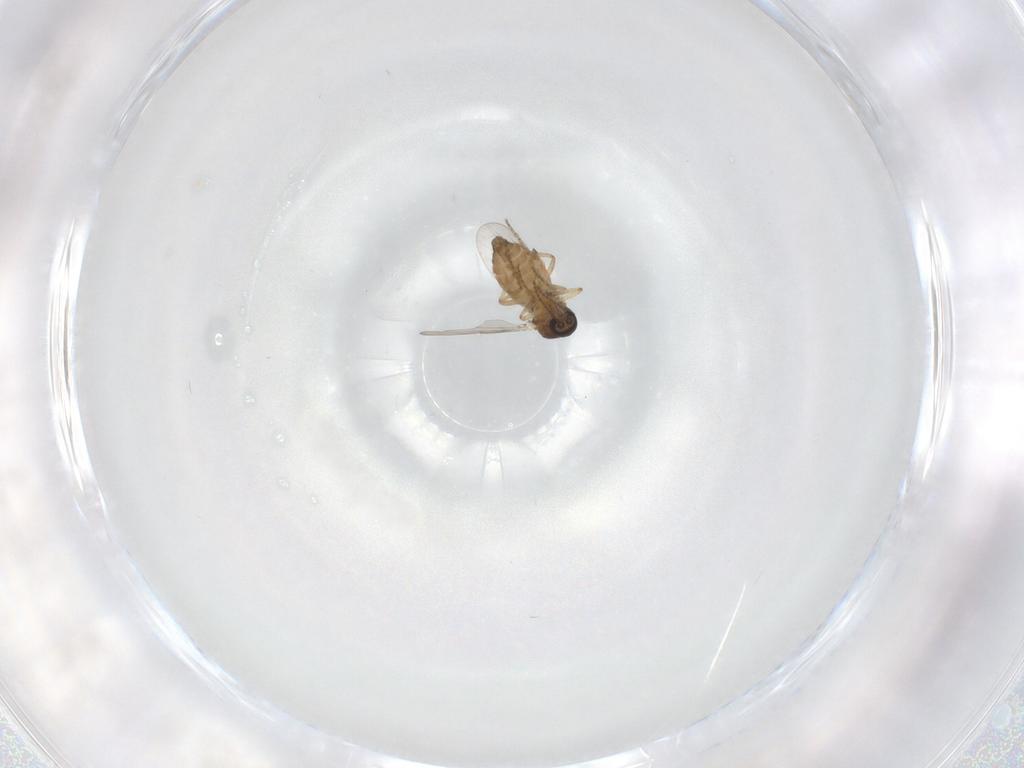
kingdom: Animalia
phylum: Arthropoda
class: Insecta
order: Diptera
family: Ceratopogonidae
